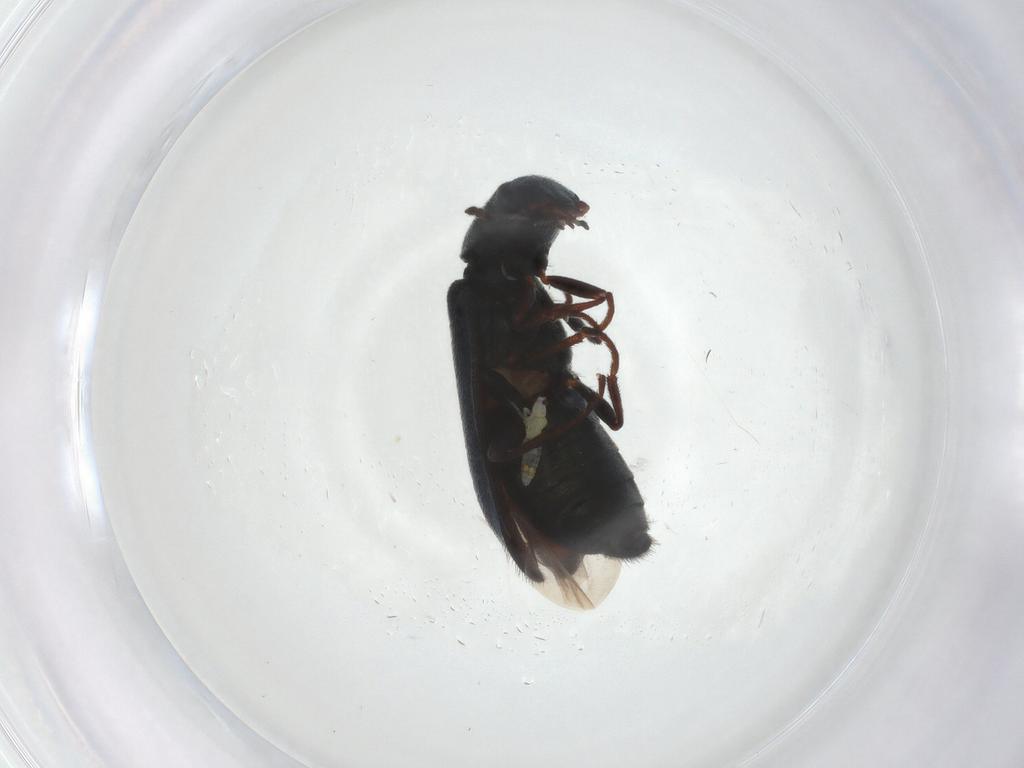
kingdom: Animalia
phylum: Arthropoda
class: Insecta
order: Coleoptera
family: Melyridae
